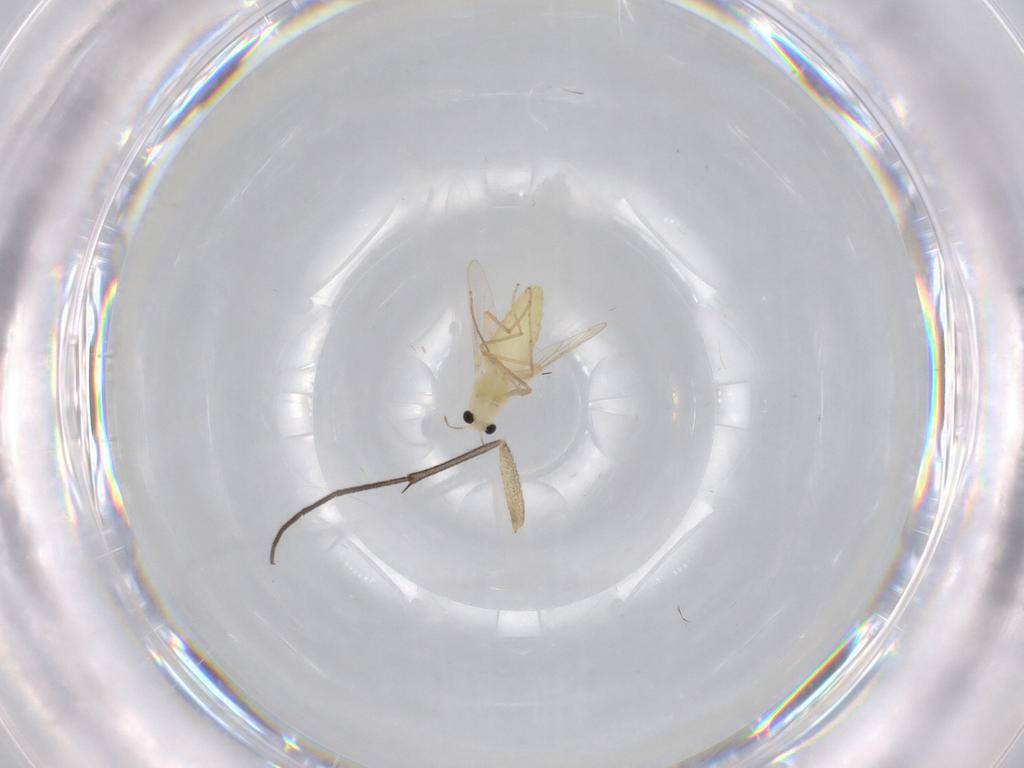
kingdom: Animalia
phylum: Arthropoda
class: Insecta
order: Diptera
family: Chironomidae
